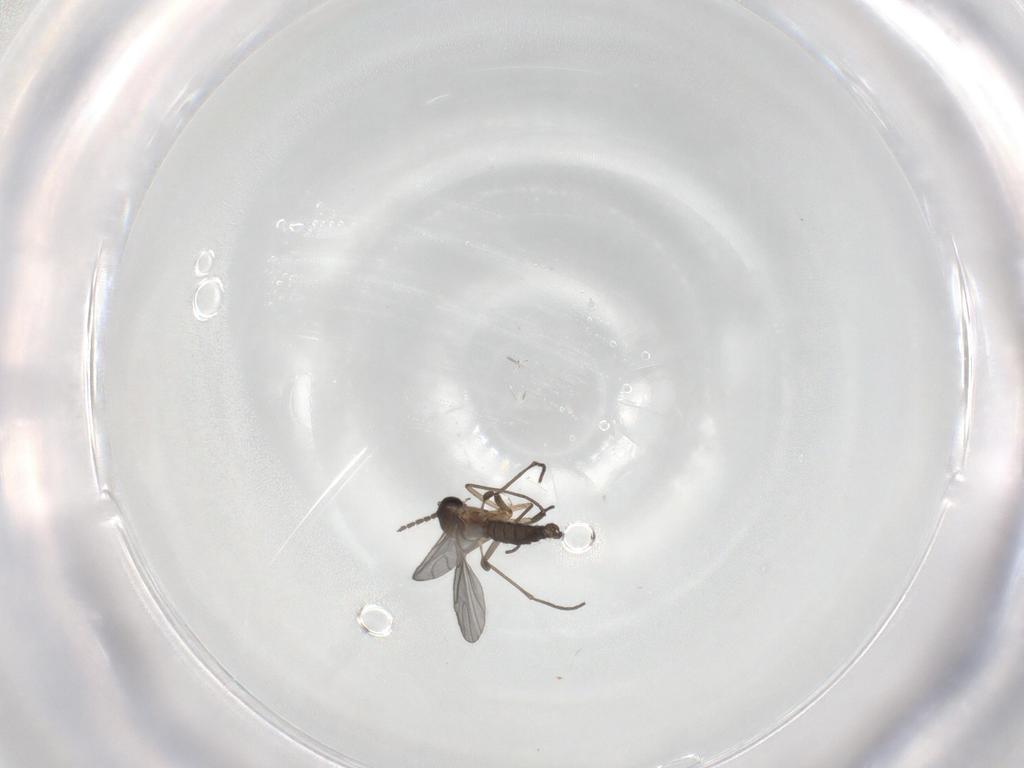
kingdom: Animalia
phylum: Arthropoda
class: Insecta
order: Diptera
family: Sciaridae
